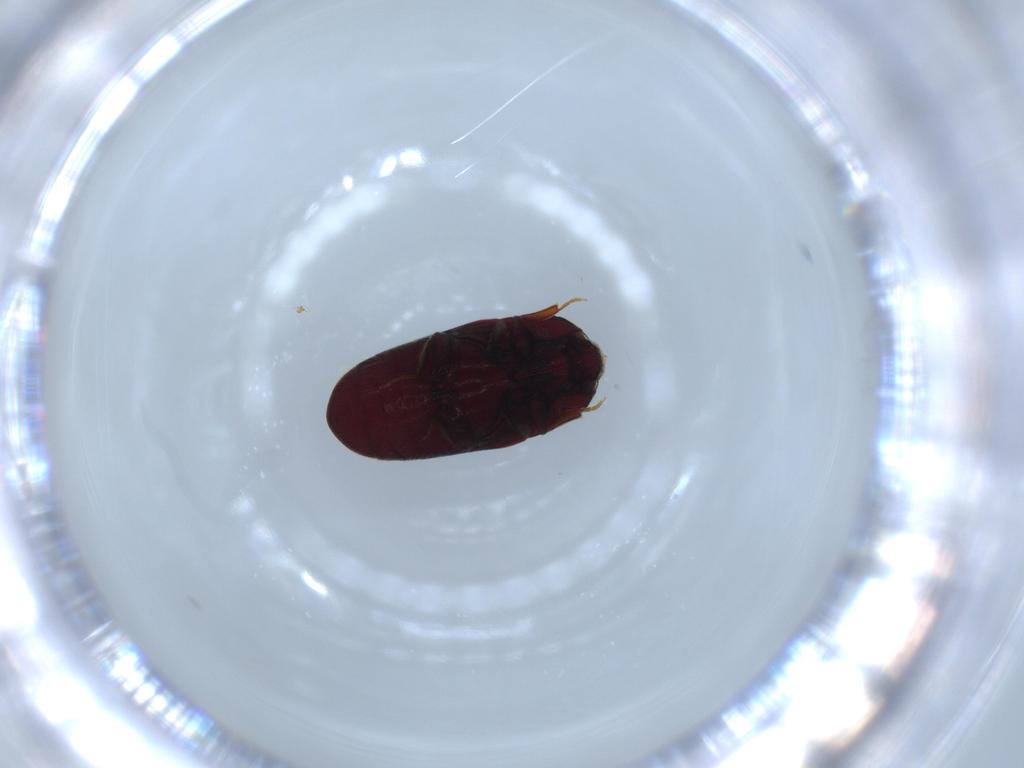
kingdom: Animalia
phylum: Arthropoda
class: Insecta
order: Coleoptera
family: Throscidae
